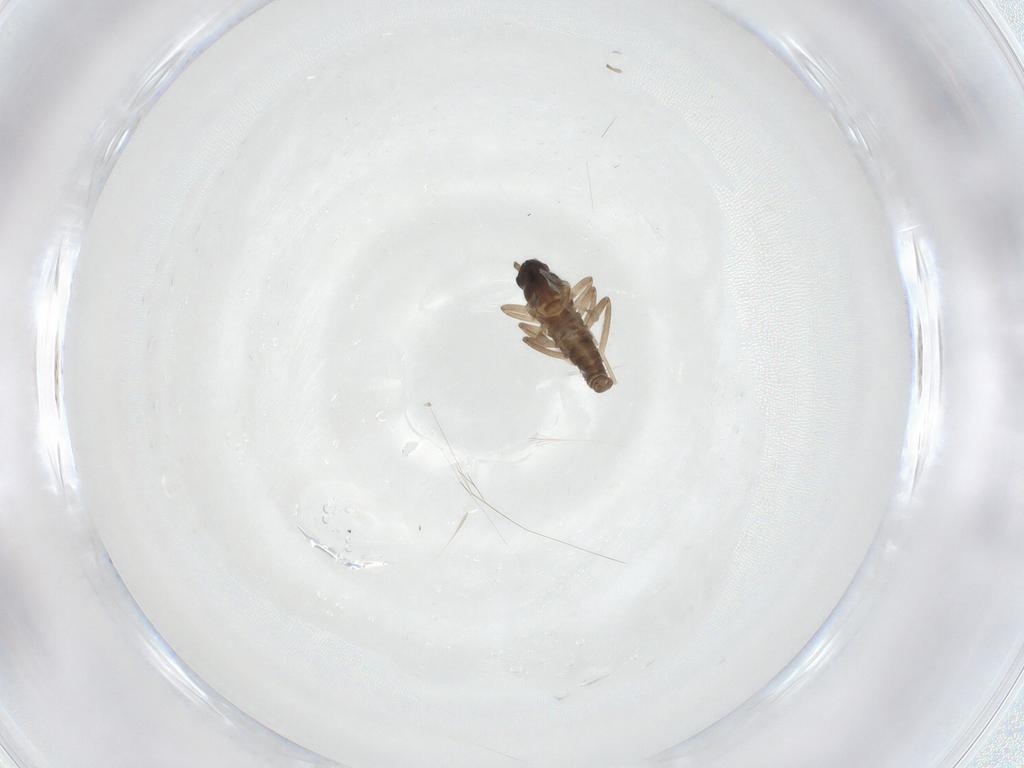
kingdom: Animalia
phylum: Arthropoda
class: Insecta
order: Diptera
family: Cecidomyiidae
